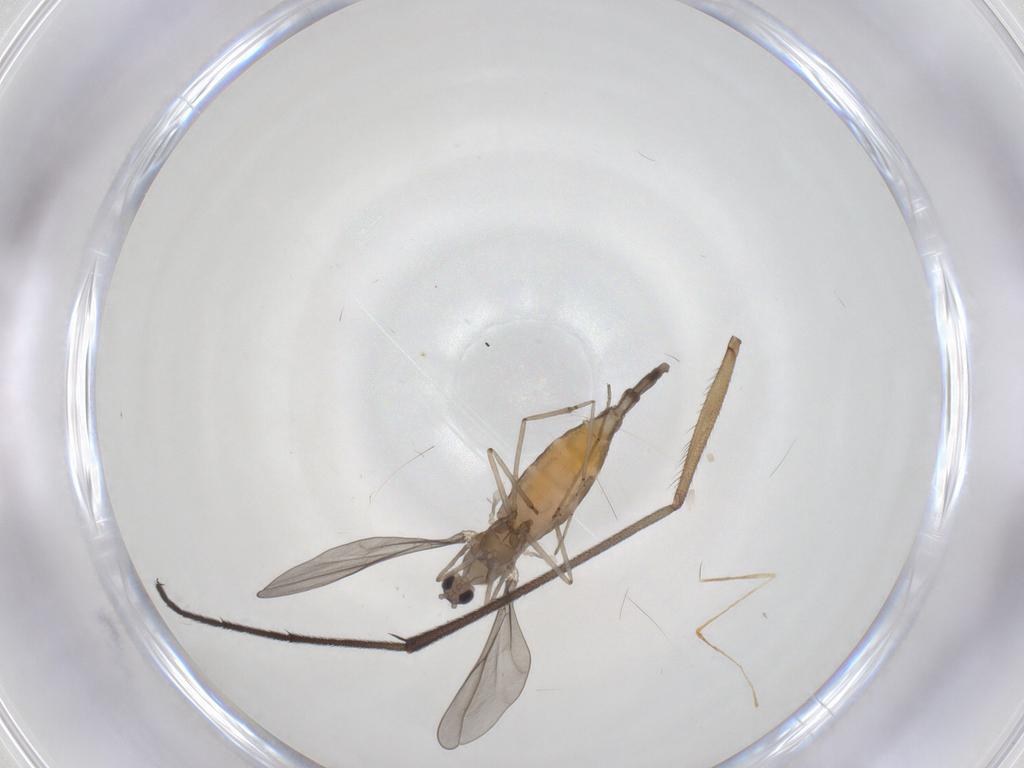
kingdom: Animalia
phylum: Arthropoda
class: Insecta
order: Diptera
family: Cecidomyiidae
